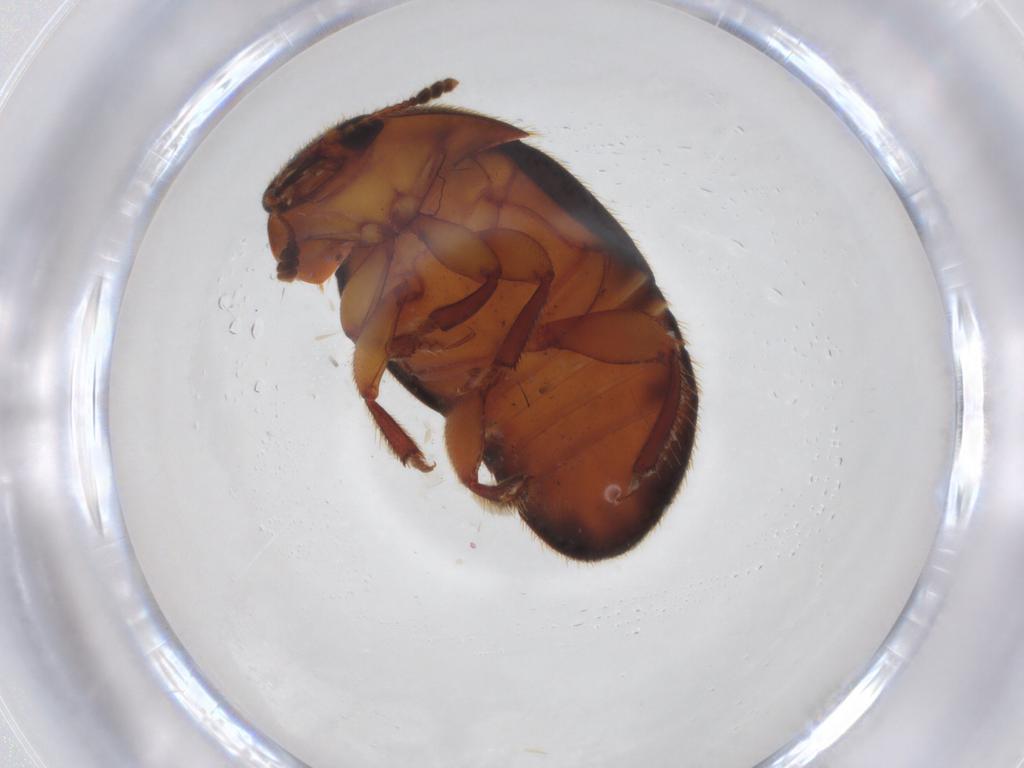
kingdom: Animalia
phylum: Arthropoda
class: Insecta
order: Coleoptera
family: Nitidulidae
